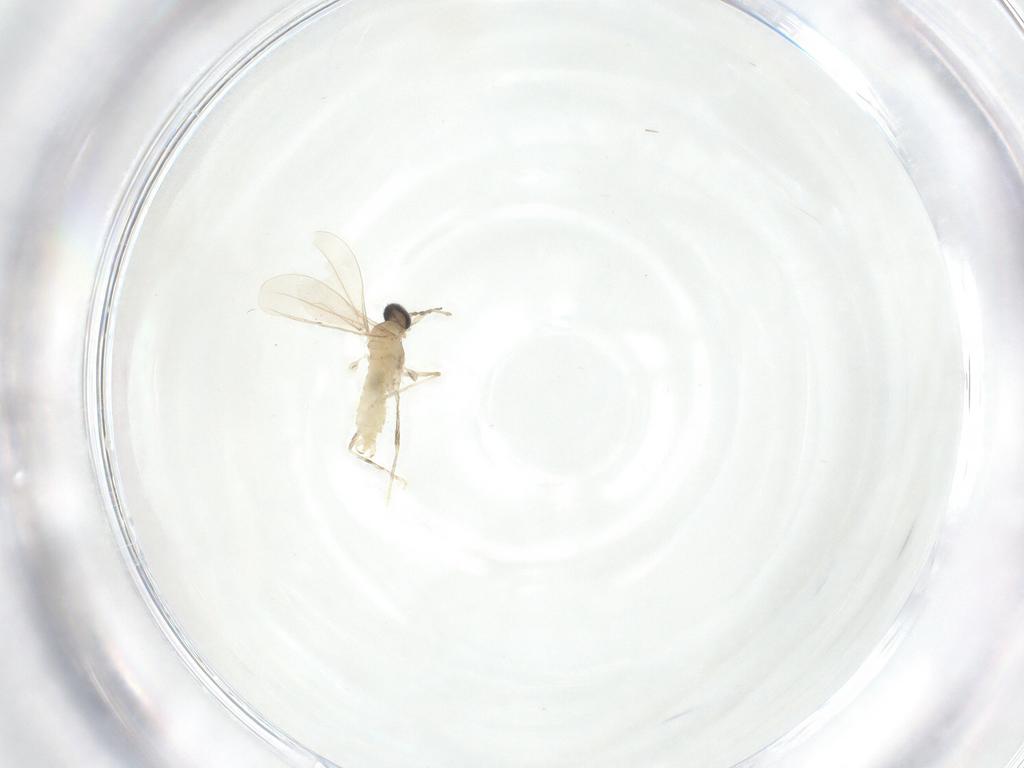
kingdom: Animalia
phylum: Arthropoda
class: Insecta
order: Diptera
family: Cecidomyiidae
